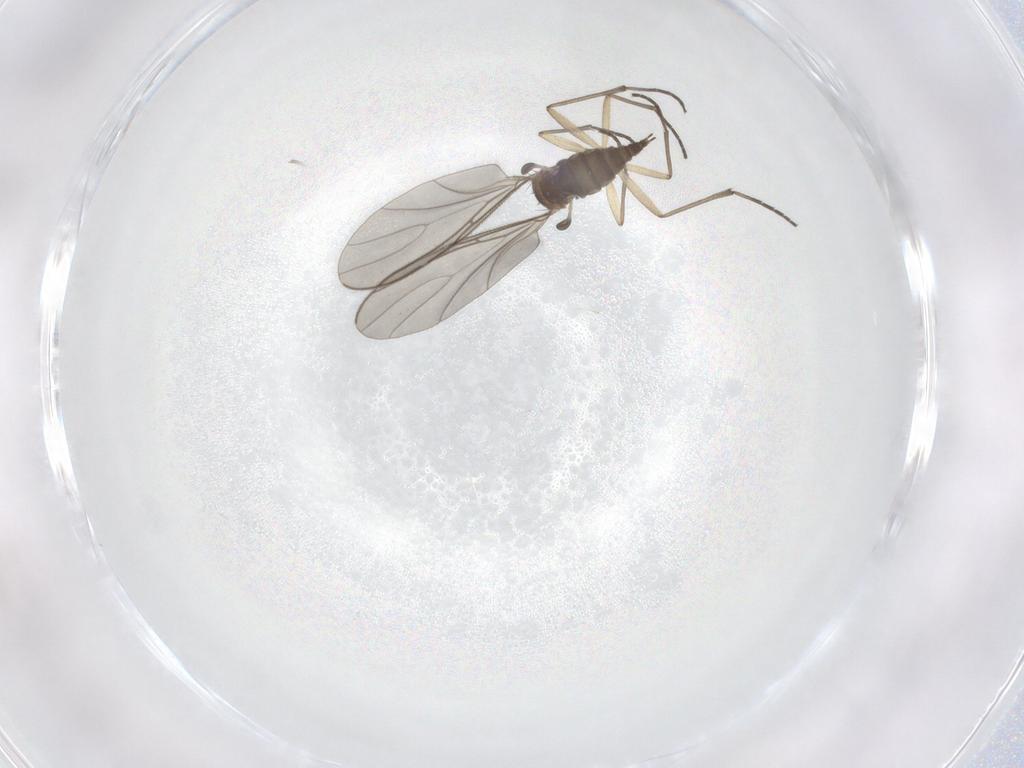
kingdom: Animalia
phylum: Arthropoda
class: Insecta
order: Diptera
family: Sciaridae
